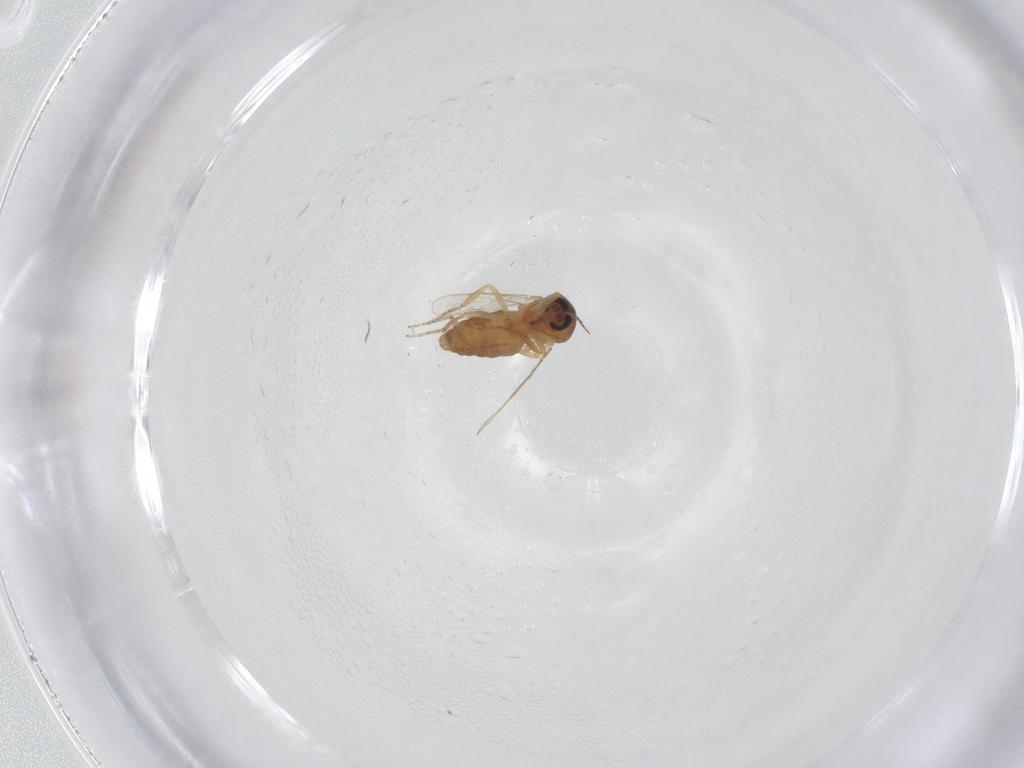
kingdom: Animalia
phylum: Arthropoda
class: Insecta
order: Diptera
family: Ceratopogonidae
